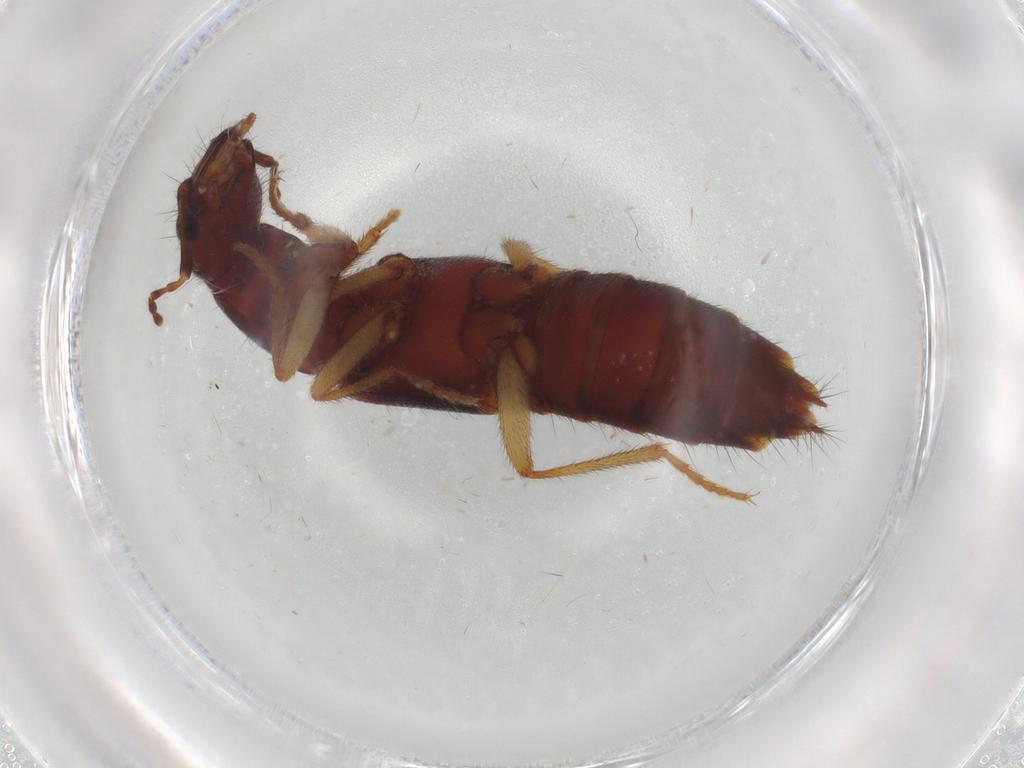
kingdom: Animalia
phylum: Arthropoda
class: Insecta
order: Coleoptera
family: Staphylinidae
